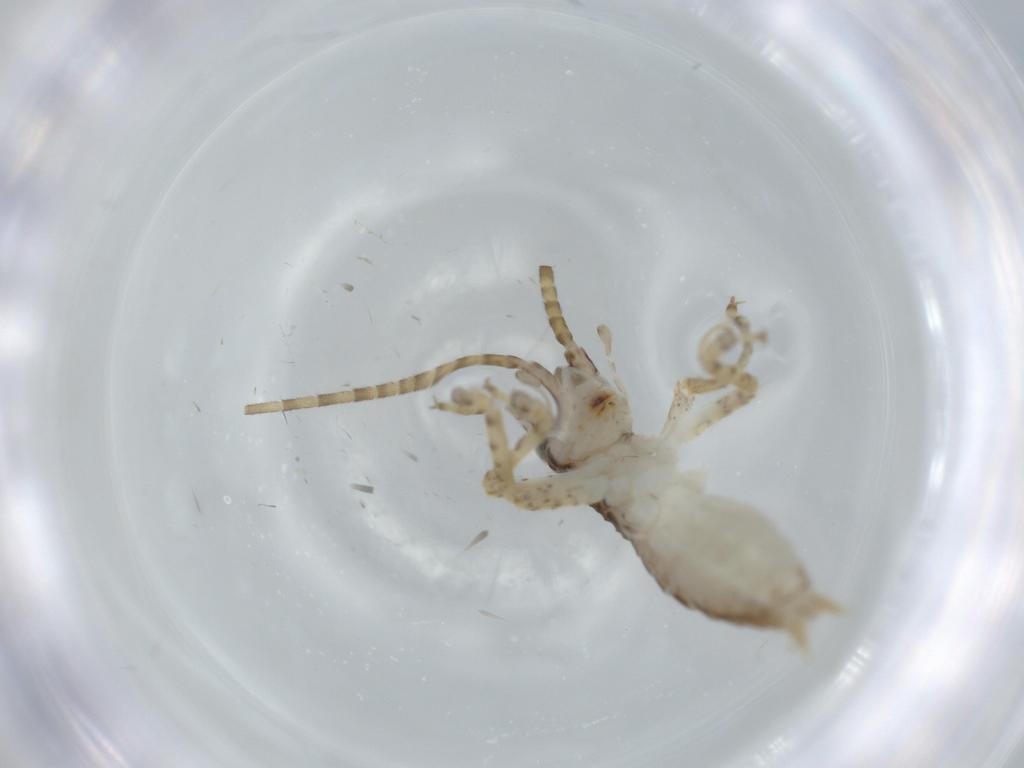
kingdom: Animalia
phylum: Arthropoda
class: Insecta
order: Orthoptera
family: Gryllidae
